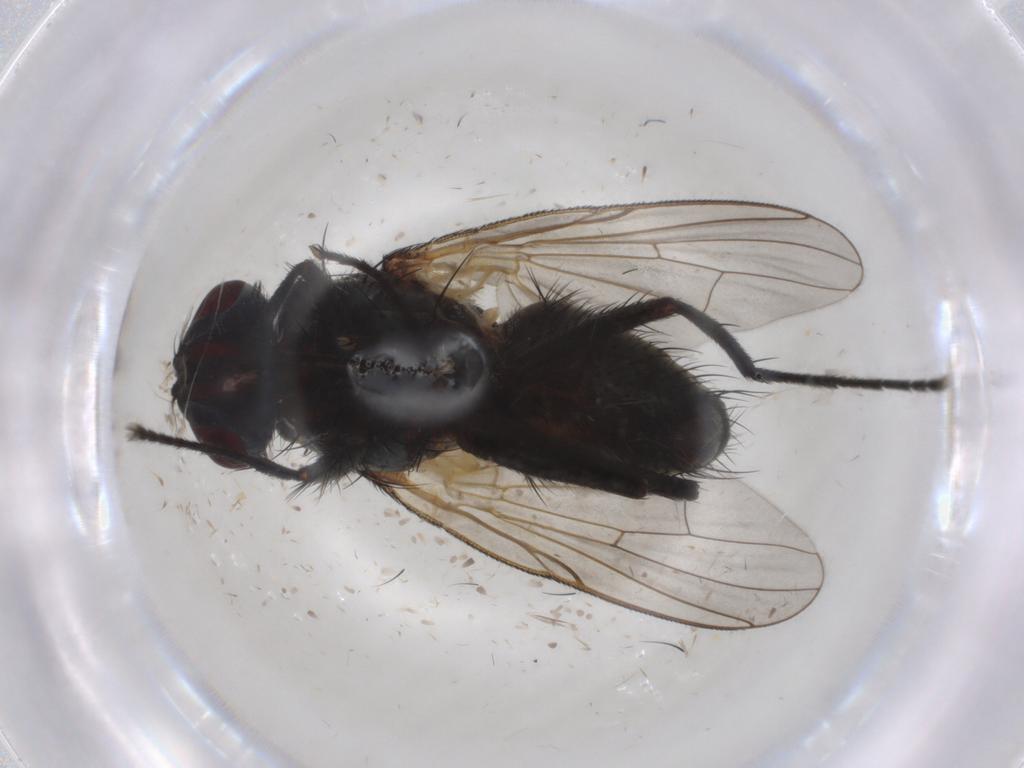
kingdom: Animalia
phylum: Arthropoda
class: Insecta
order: Diptera
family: Muscidae
